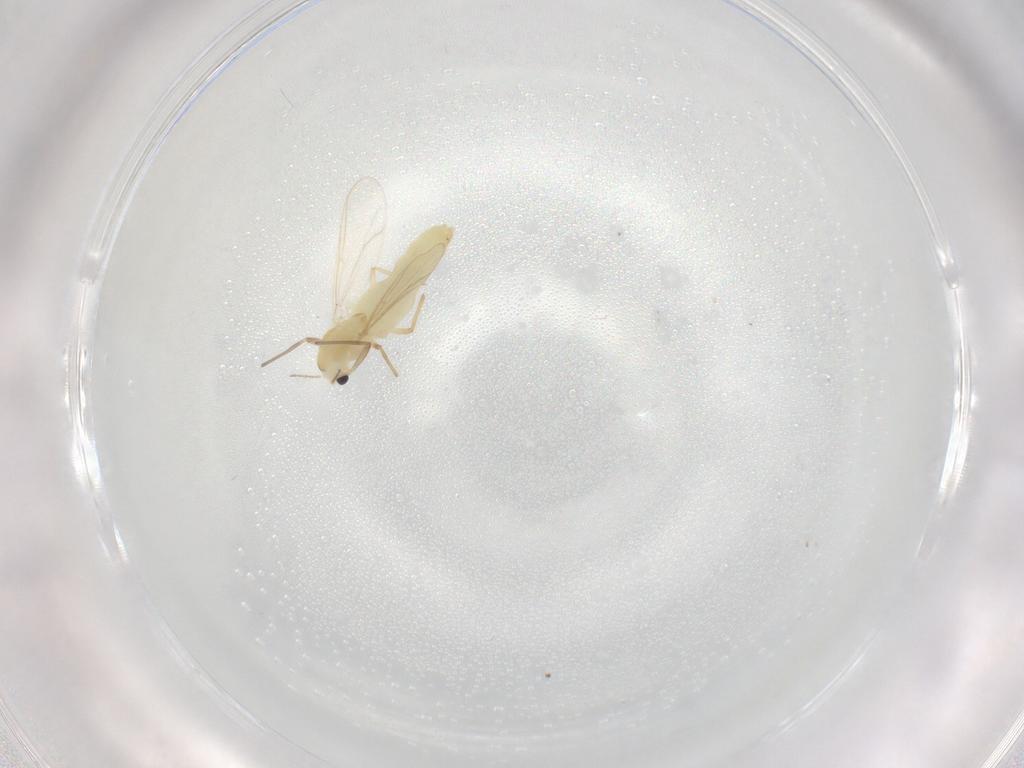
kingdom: Animalia
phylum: Arthropoda
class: Insecta
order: Diptera
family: Chironomidae
